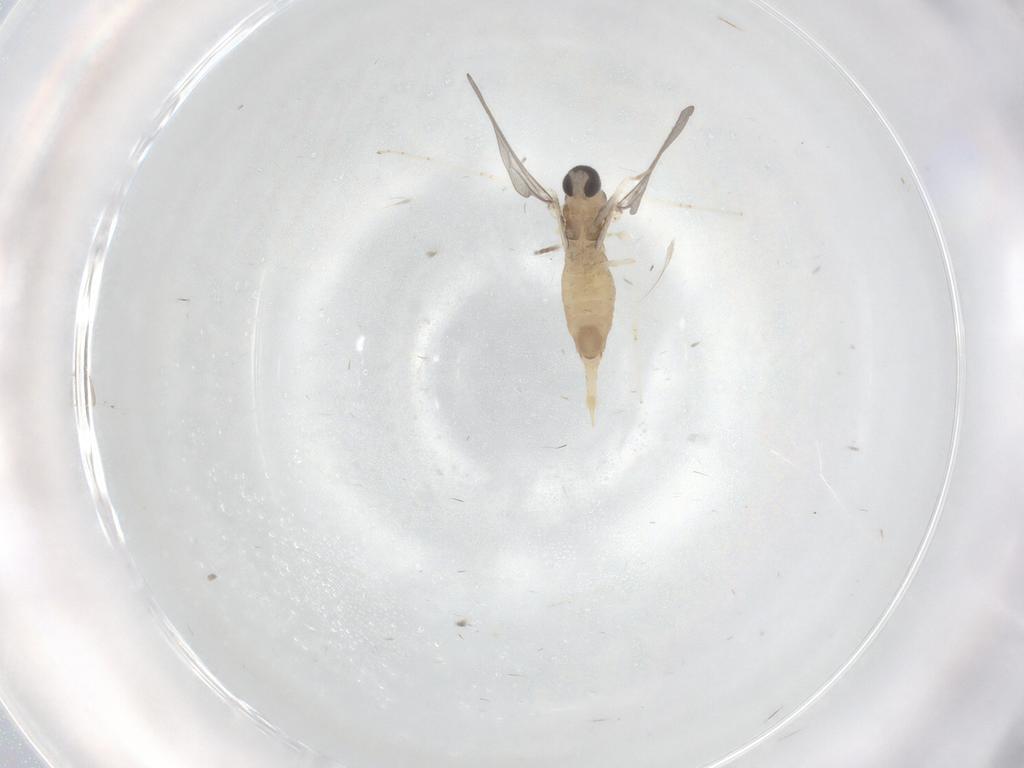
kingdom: Animalia
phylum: Arthropoda
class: Insecta
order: Diptera
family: Cecidomyiidae
